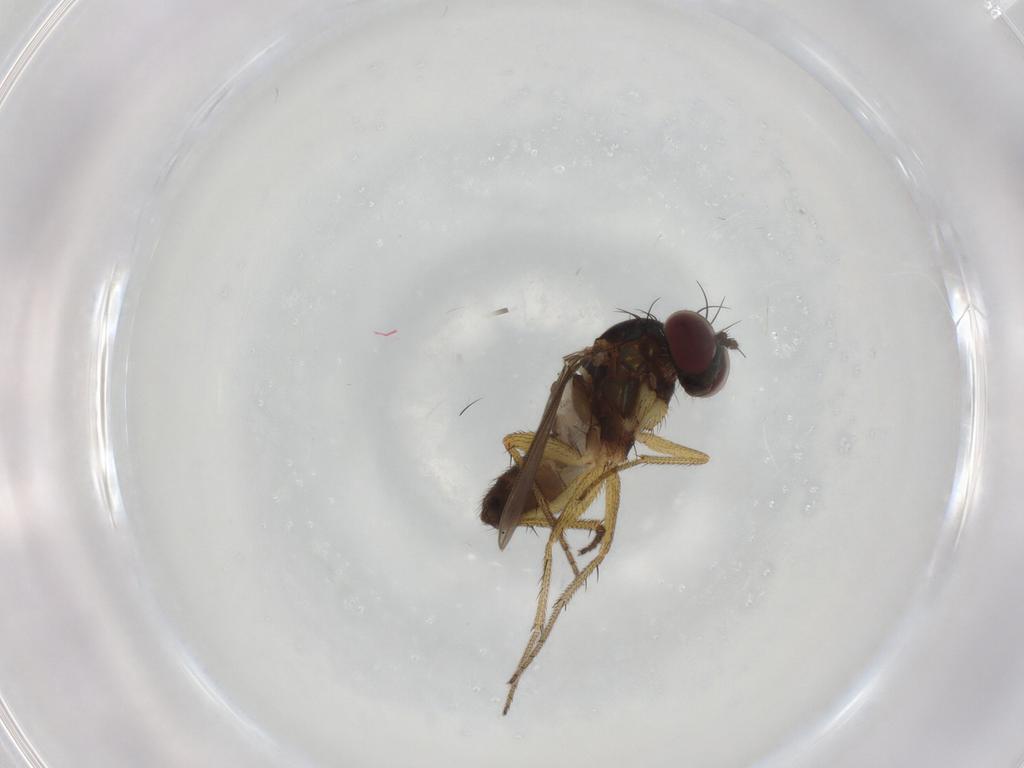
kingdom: Animalia
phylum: Arthropoda
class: Insecta
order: Diptera
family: Dolichopodidae
